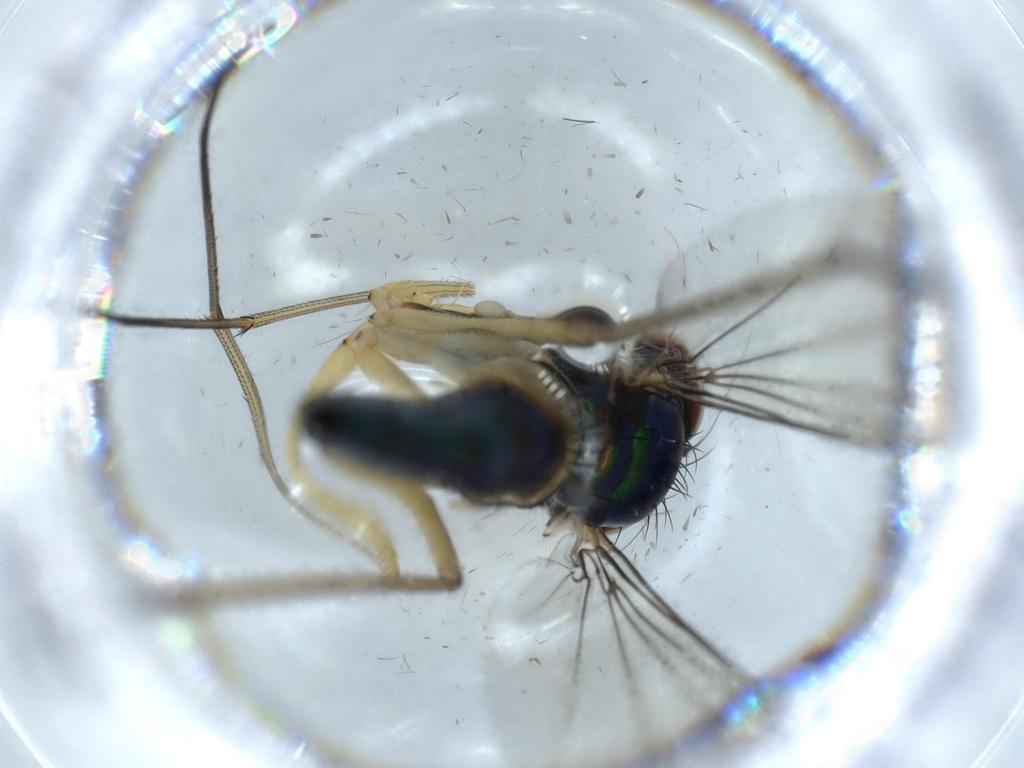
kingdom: Animalia
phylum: Arthropoda
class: Insecta
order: Diptera
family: Dolichopodidae
